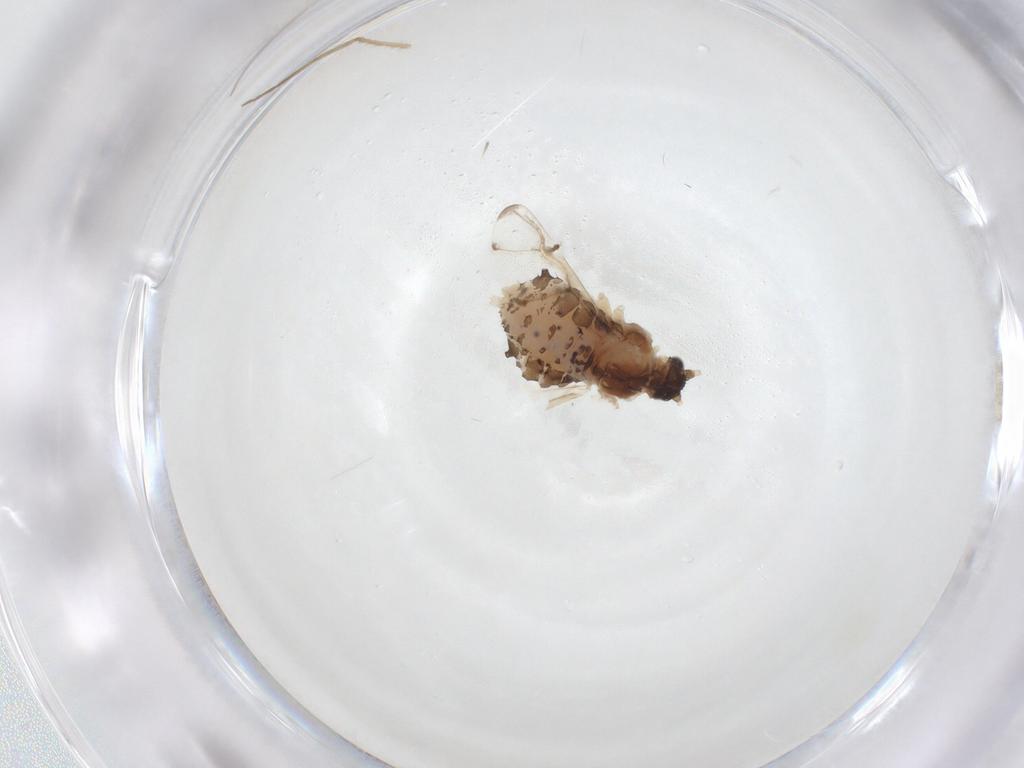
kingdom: Animalia
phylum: Arthropoda
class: Insecta
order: Hemiptera
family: Aphididae
